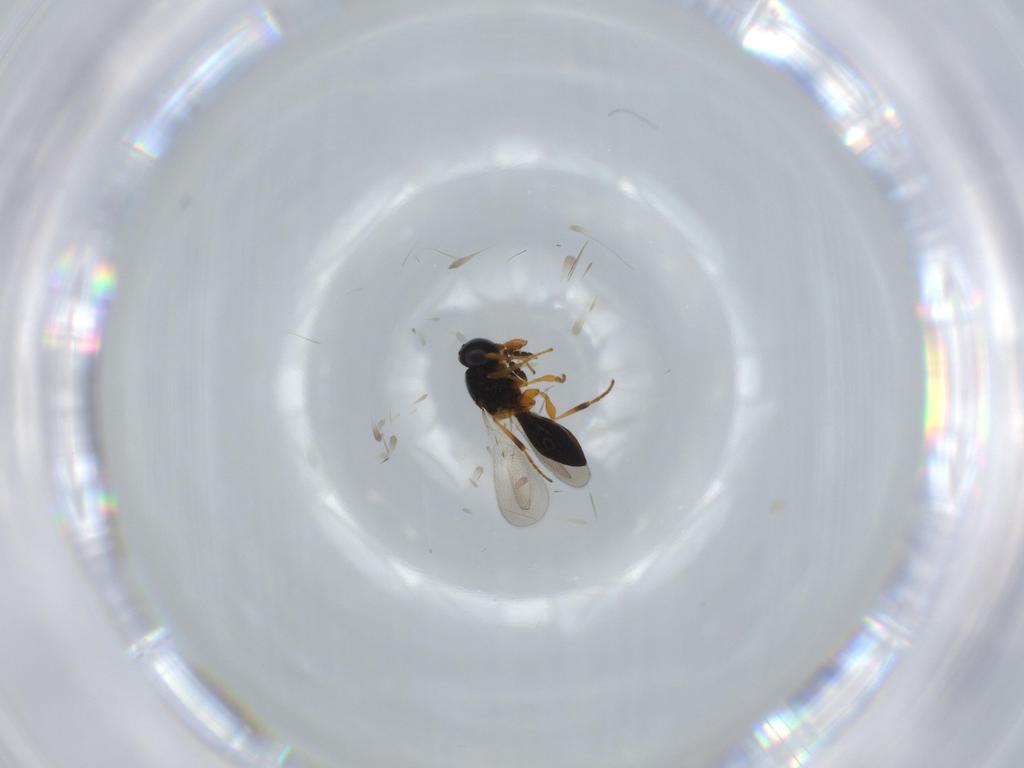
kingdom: Animalia
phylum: Arthropoda
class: Insecta
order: Hymenoptera
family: Platygastridae
